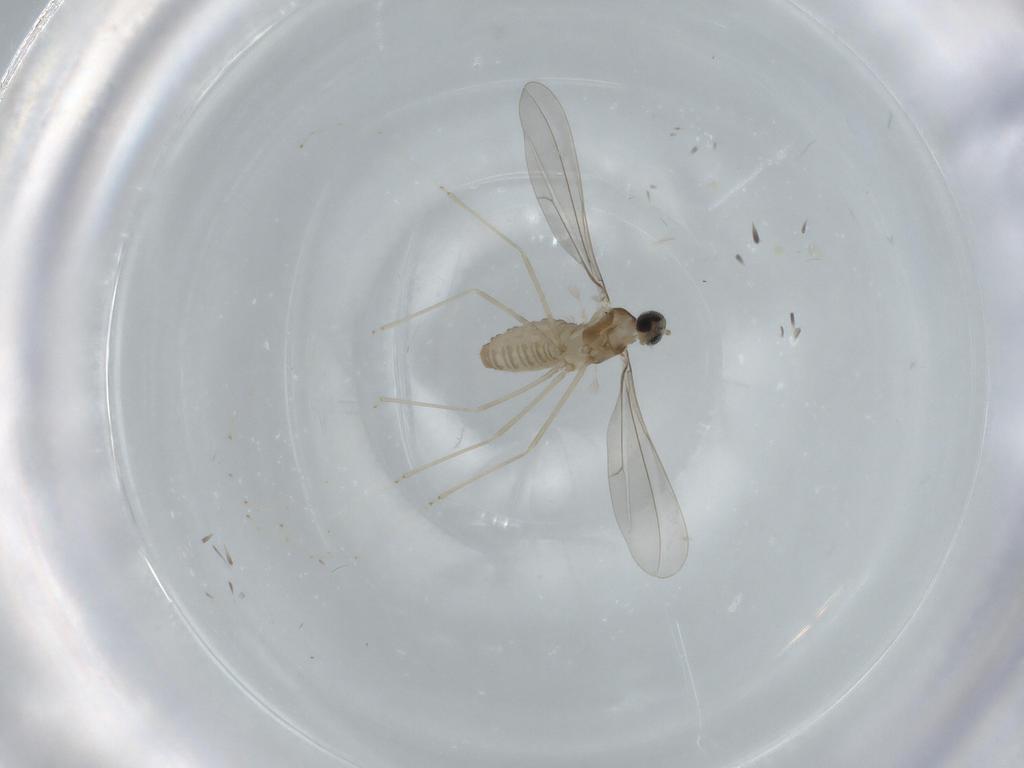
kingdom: Animalia
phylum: Arthropoda
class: Insecta
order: Diptera
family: Cecidomyiidae
